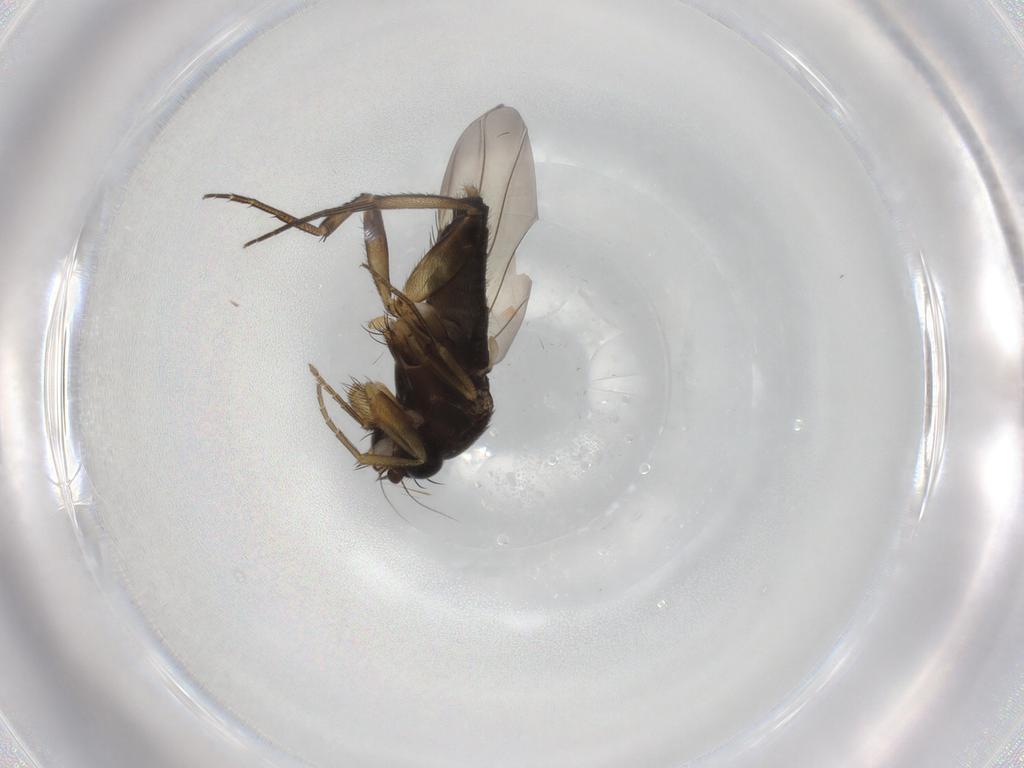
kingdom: Animalia
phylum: Arthropoda
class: Insecta
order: Diptera
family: Phoridae
